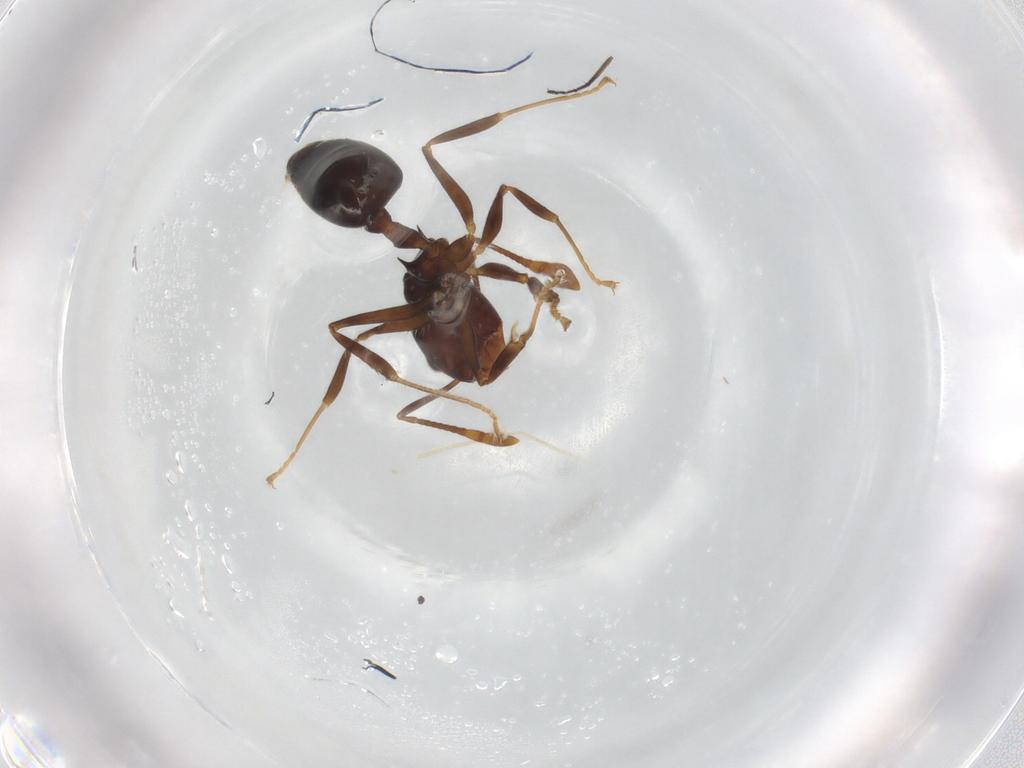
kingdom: Animalia
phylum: Arthropoda
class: Insecta
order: Hymenoptera
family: Formicidae
